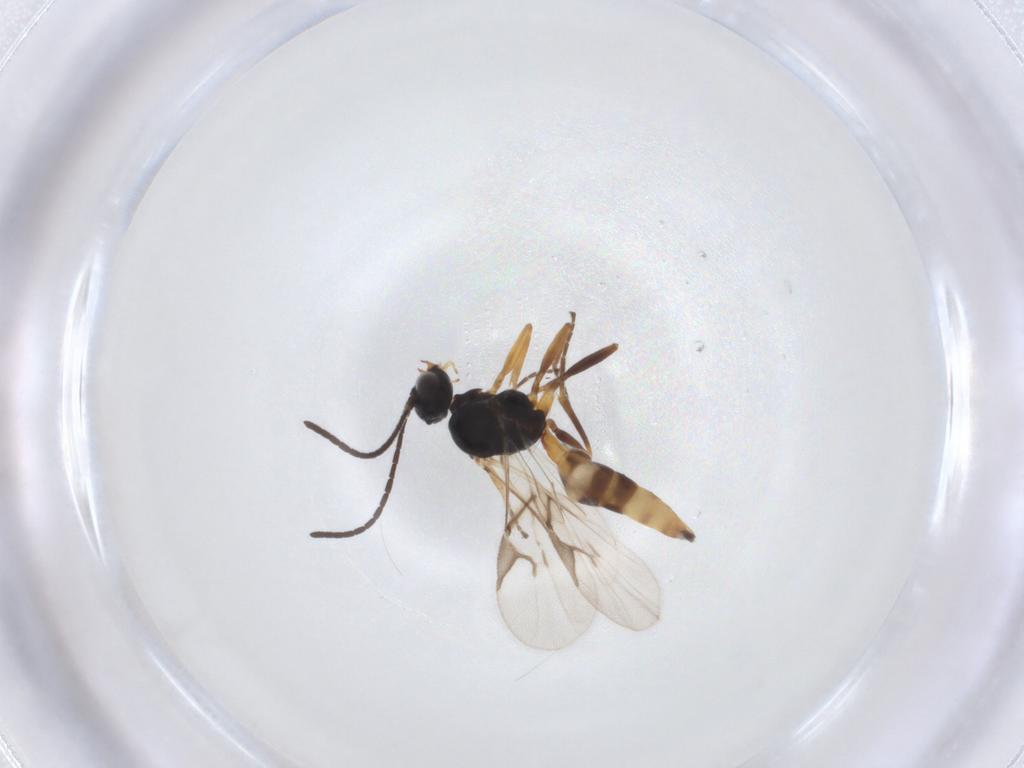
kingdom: Animalia
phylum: Arthropoda
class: Insecta
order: Hymenoptera
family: Braconidae
